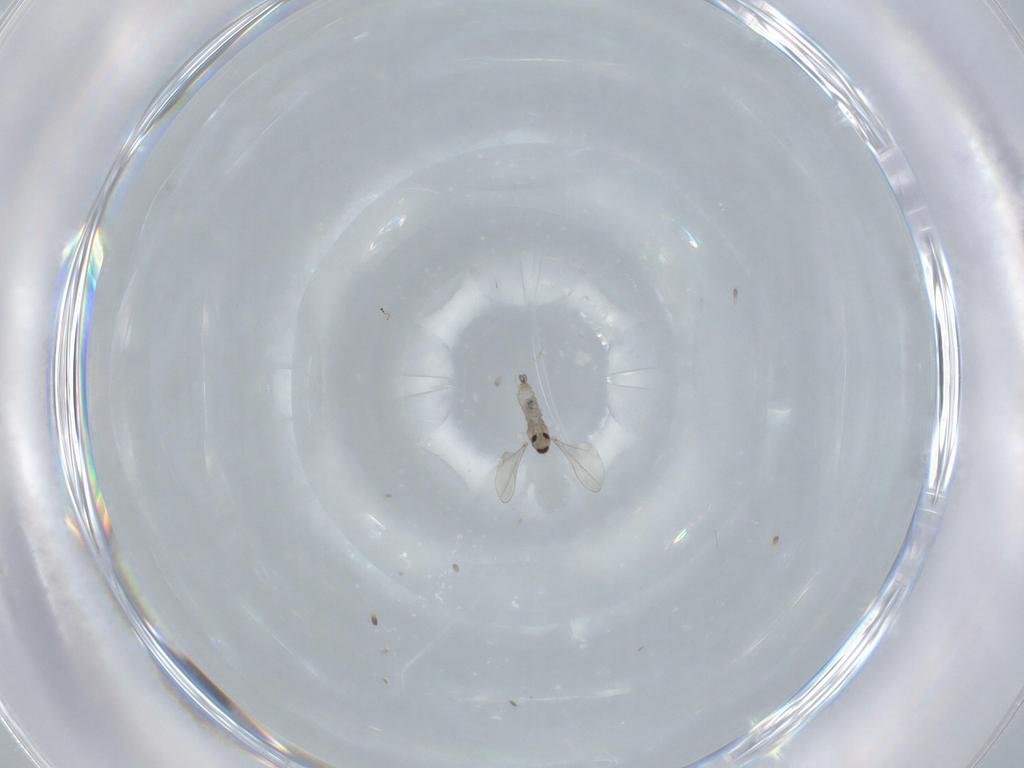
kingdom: Animalia
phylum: Arthropoda
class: Insecta
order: Diptera
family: Cecidomyiidae
